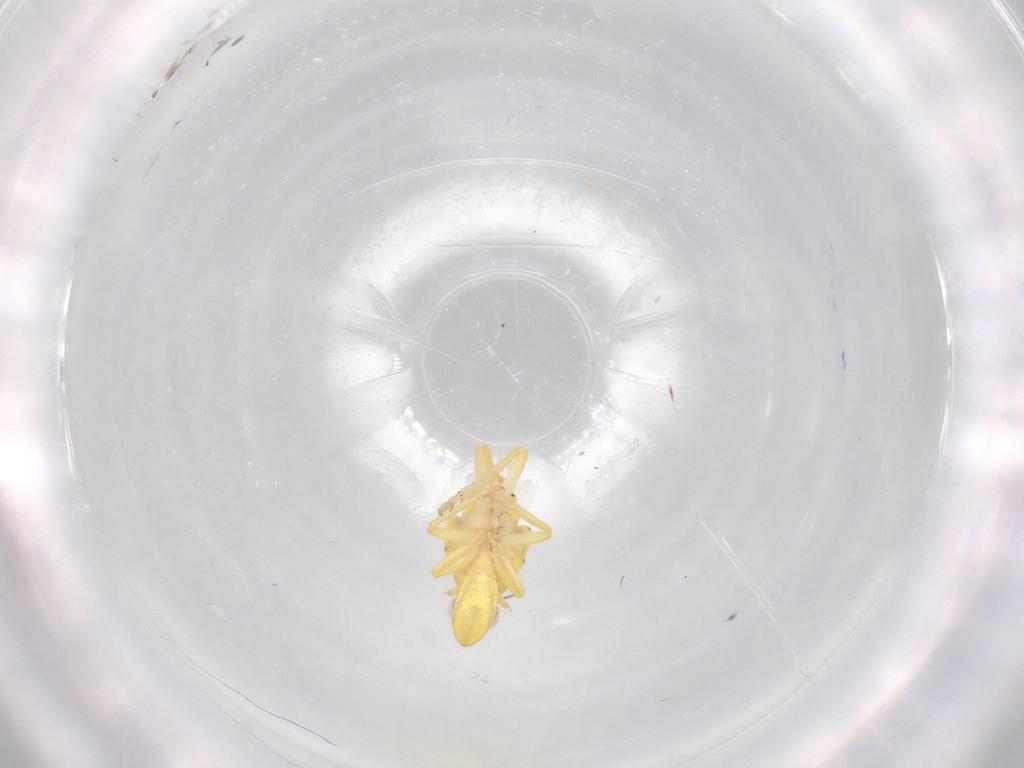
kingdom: Animalia
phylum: Arthropoda
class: Insecta
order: Hemiptera
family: Tropiduchidae
